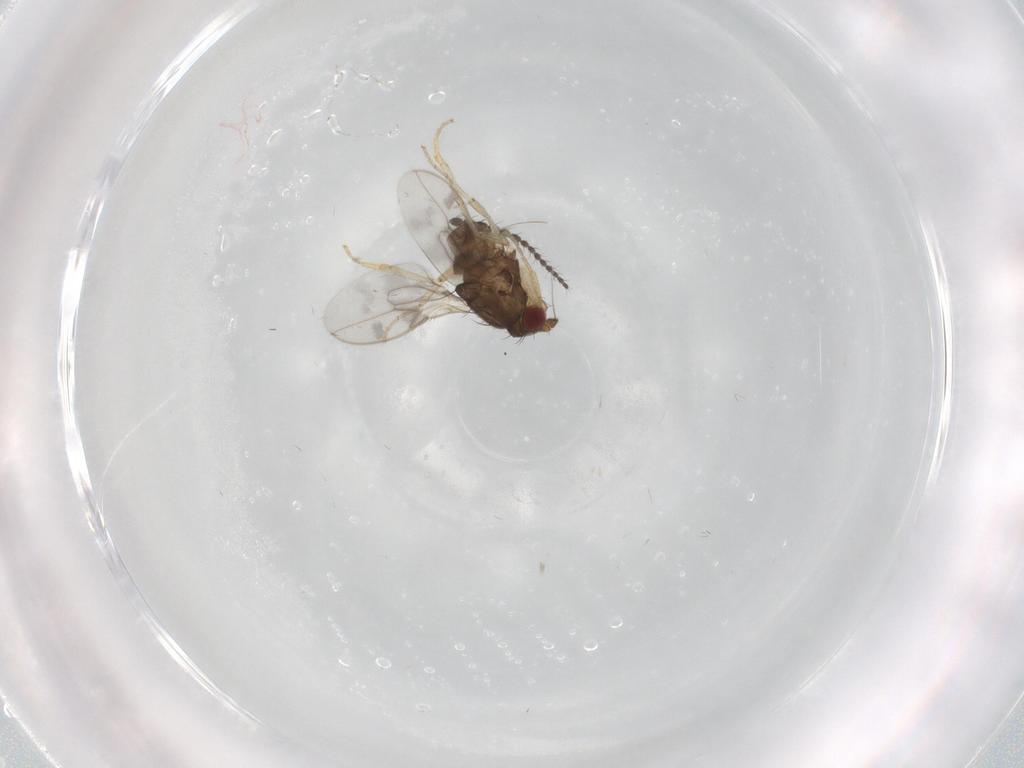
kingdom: Animalia
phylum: Arthropoda
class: Insecta
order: Diptera
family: Sphaeroceridae
